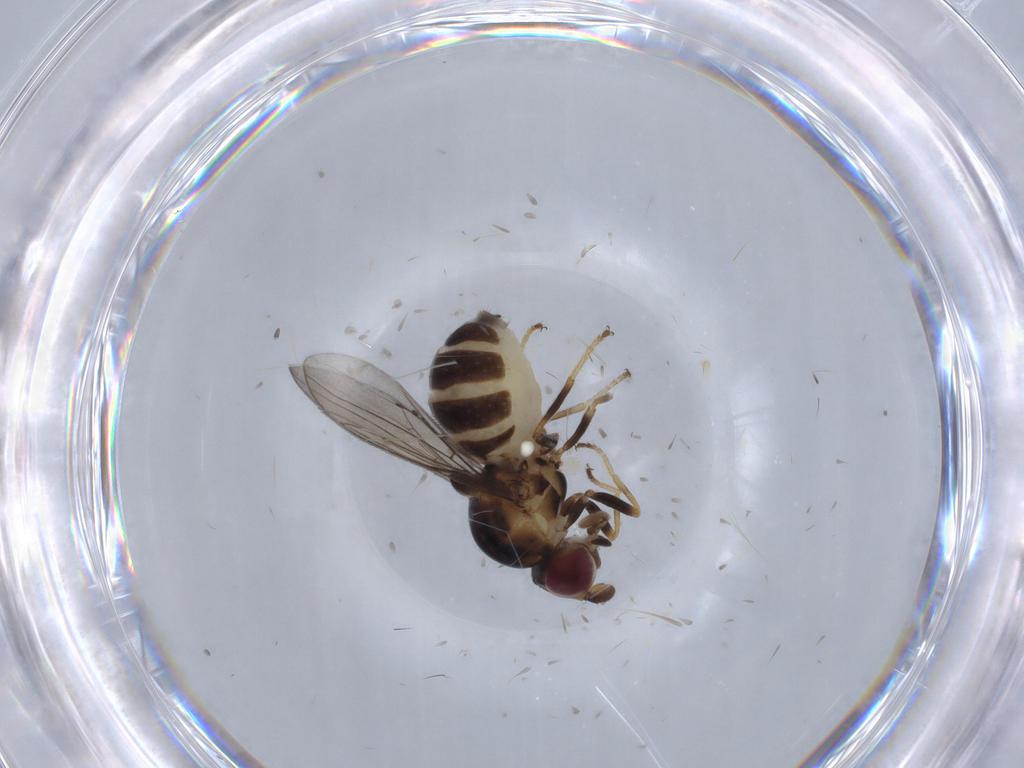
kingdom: Animalia
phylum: Arthropoda
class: Insecta
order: Diptera
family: Chloropidae
